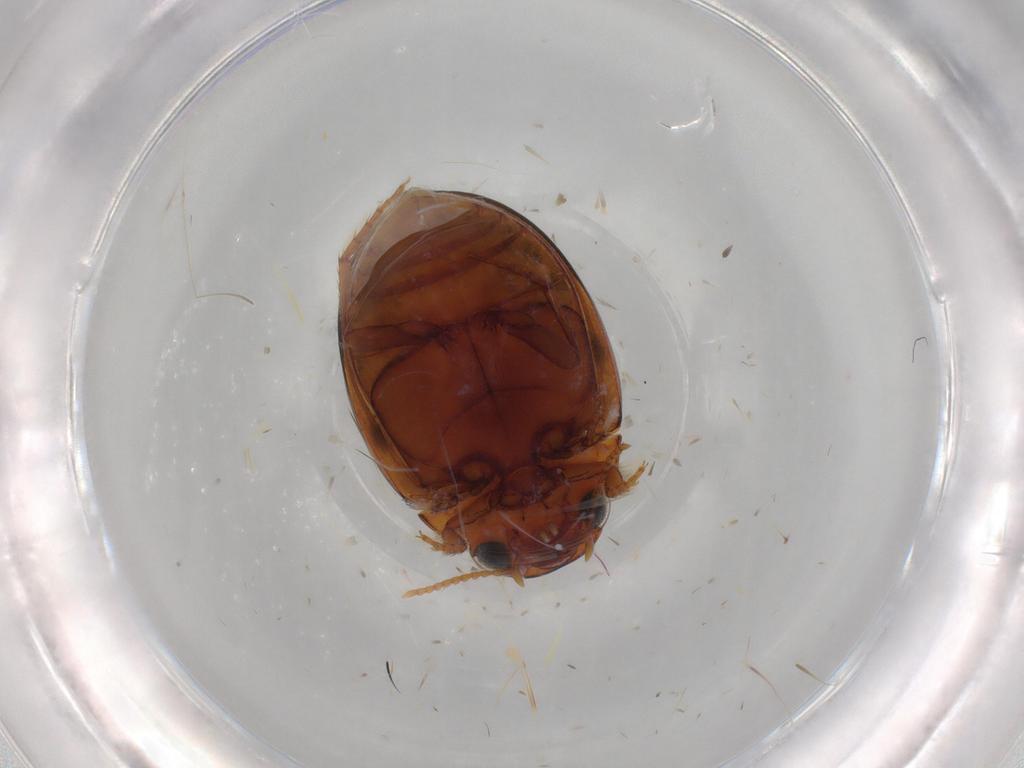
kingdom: Animalia
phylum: Arthropoda
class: Insecta
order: Coleoptera
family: Dytiscidae
